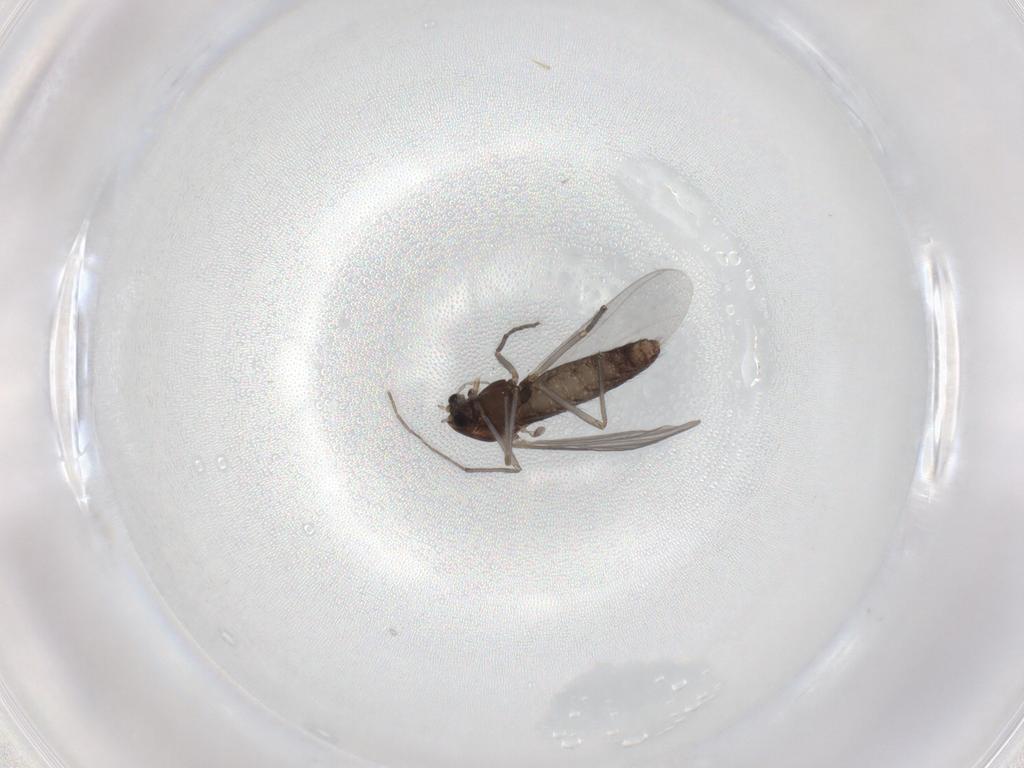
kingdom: Animalia
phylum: Arthropoda
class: Insecta
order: Diptera
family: Chironomidae
